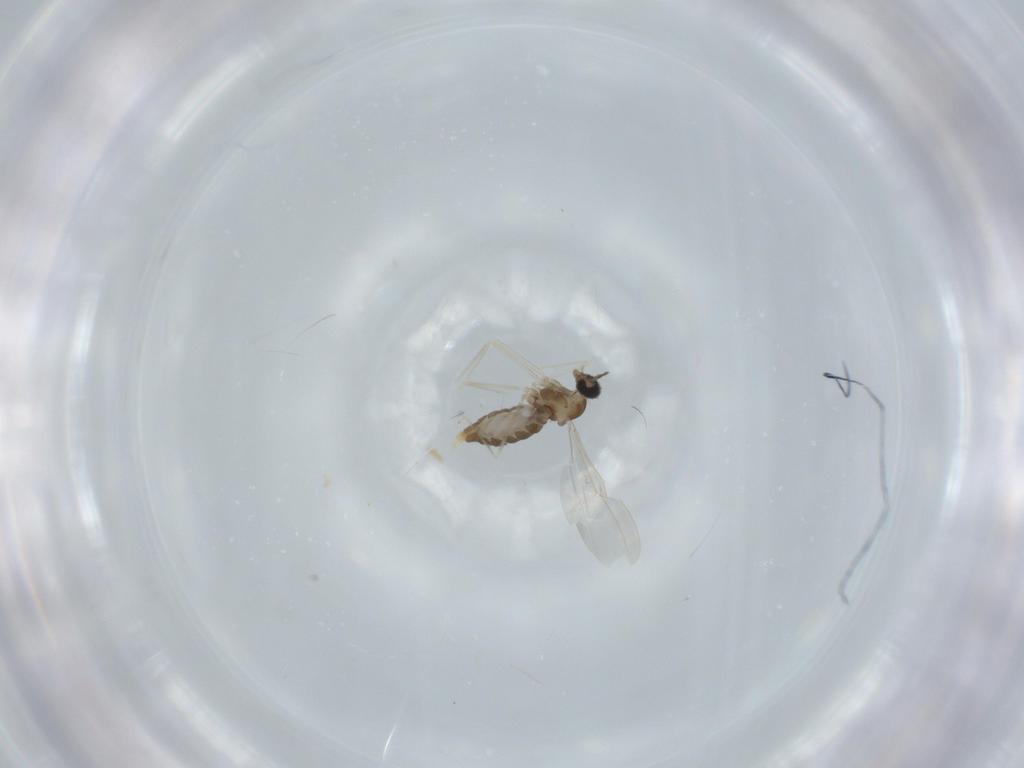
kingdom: Animalia
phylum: Arthropoda
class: Insecta
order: Diptera
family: Cecidomyiidae
